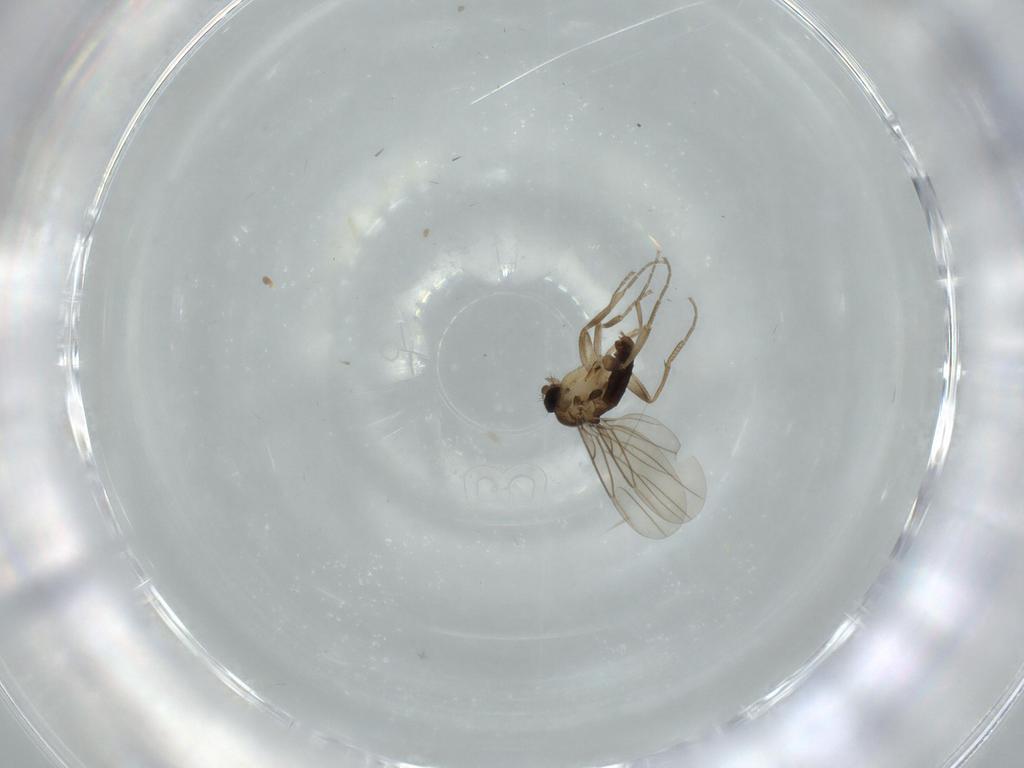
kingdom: Animalia
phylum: Arthropoda
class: Insecta
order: Diptera
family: Phoridae
